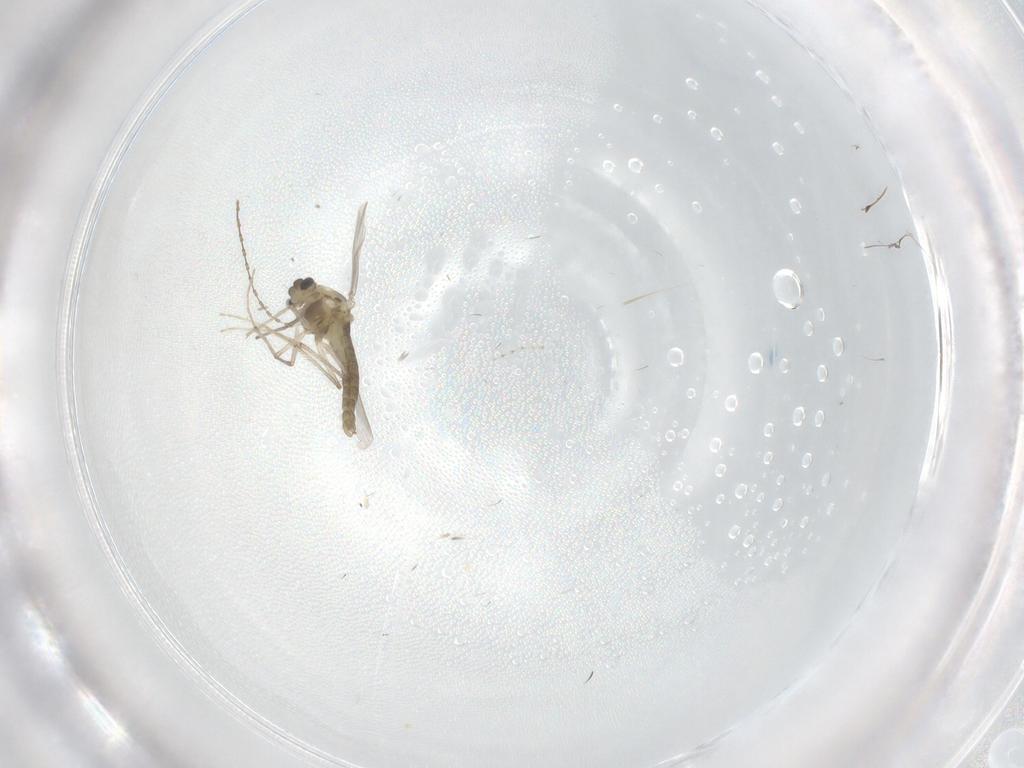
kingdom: Animalia
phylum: Arthropoda
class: Insecta
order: Diptera
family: Chironomidae
